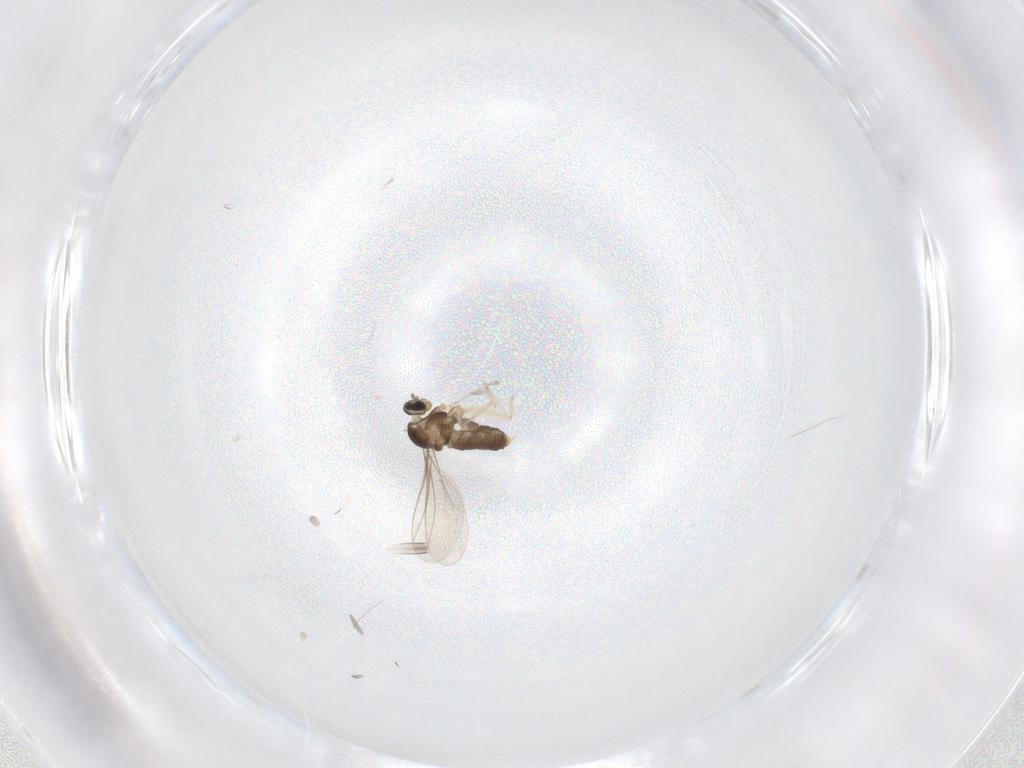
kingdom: Animalia
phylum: Arthropoda
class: Insecta
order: Diptera
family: Cecidomyiidae
